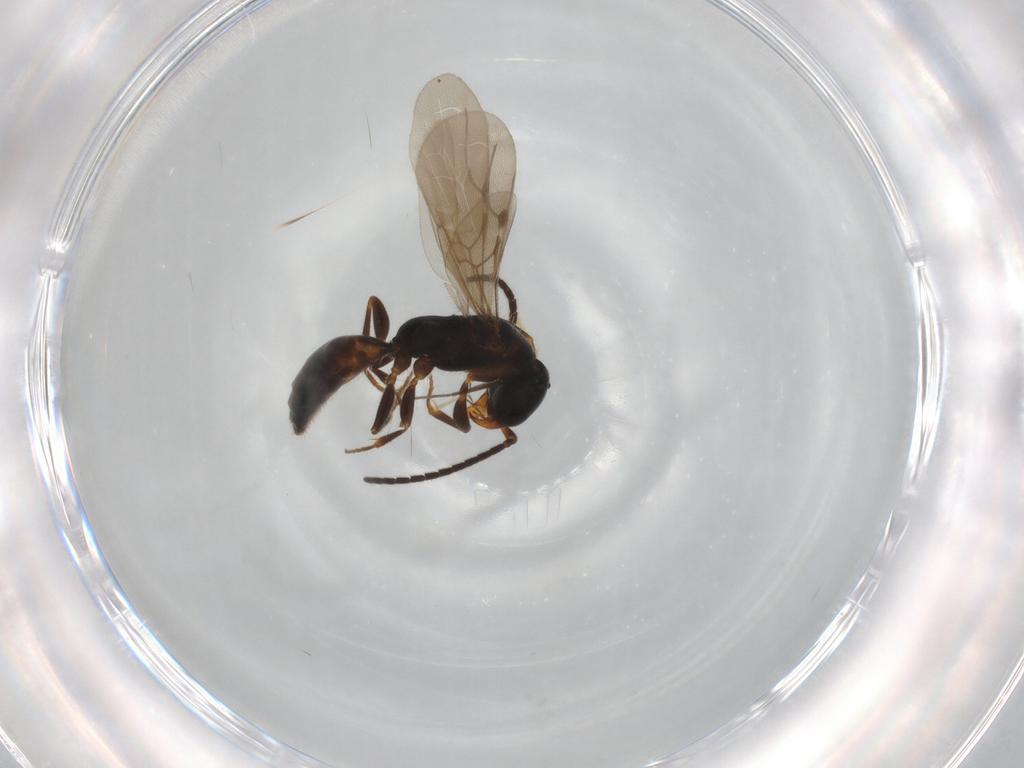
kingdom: Animalia
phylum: Arthropoda
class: Insecta
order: Hymenoptera
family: Bethylidae
